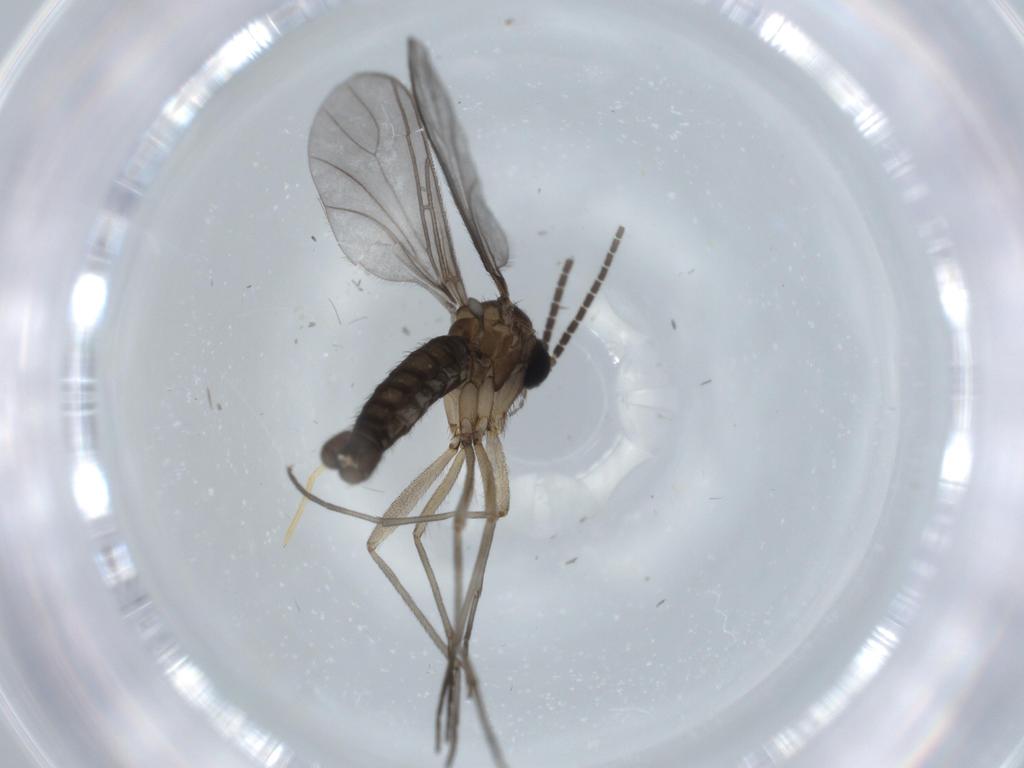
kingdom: Animalia
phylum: Arthropoda
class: Insecta
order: Diptera
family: Sciaridae
